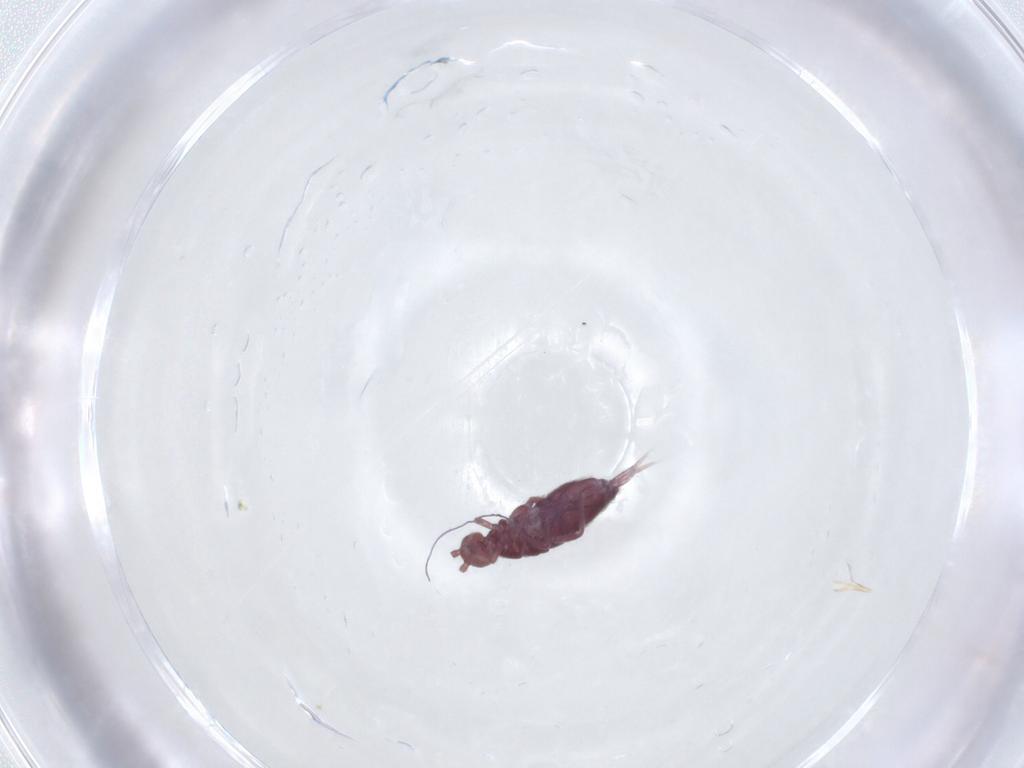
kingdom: Animalia
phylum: Arthropoda
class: Collembola
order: Entomobryomorpha
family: Entomobryidae
